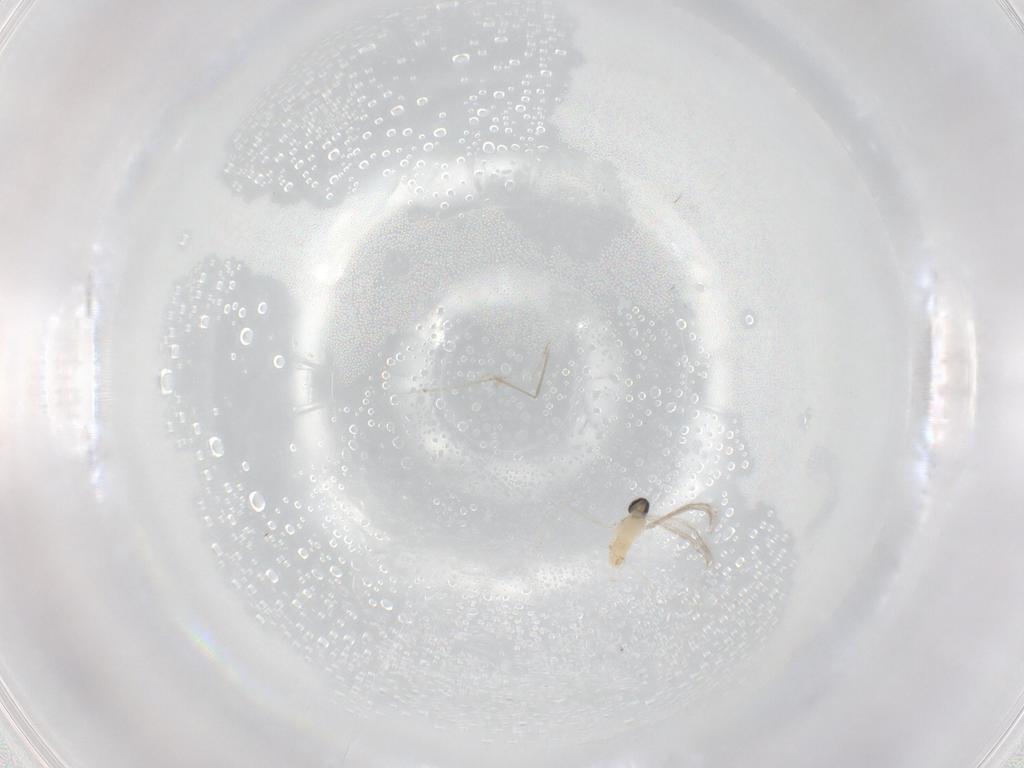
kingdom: Animalia
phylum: Arthropoda
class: Insecta
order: Diptera
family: Cecidomyiidae
